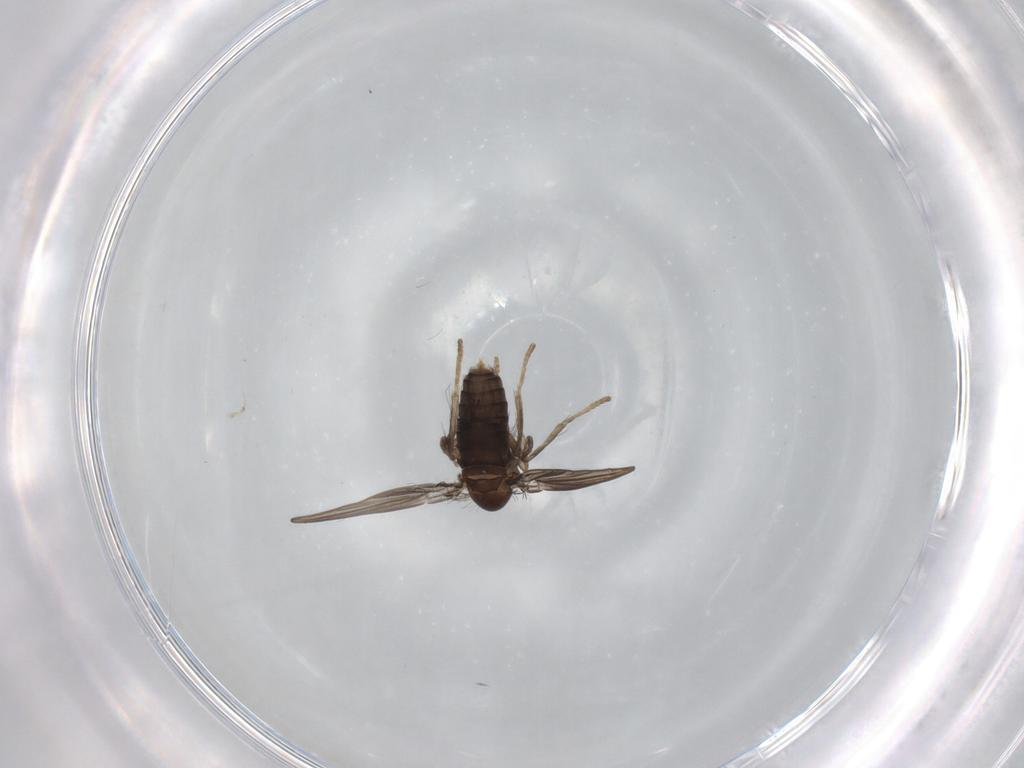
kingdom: Animalia
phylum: Arthropoda
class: Insecta
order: Diptera
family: Psychodidae
